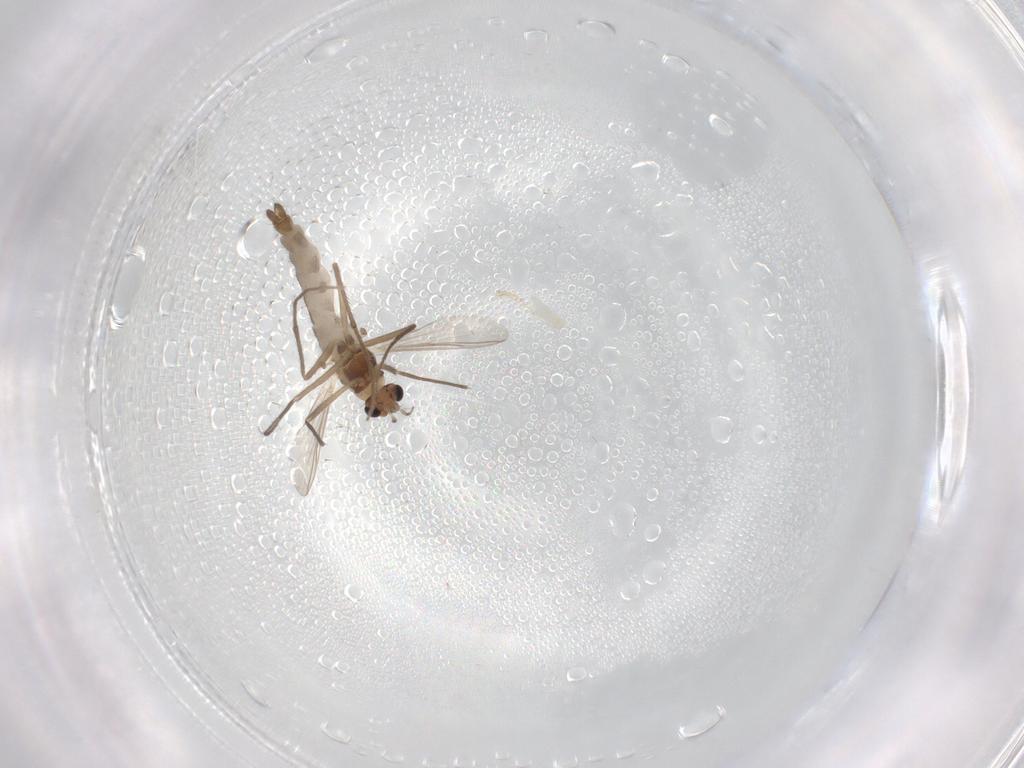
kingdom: Animalia
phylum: Arthropoda
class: Insecta
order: Diptera
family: Chironomidae
